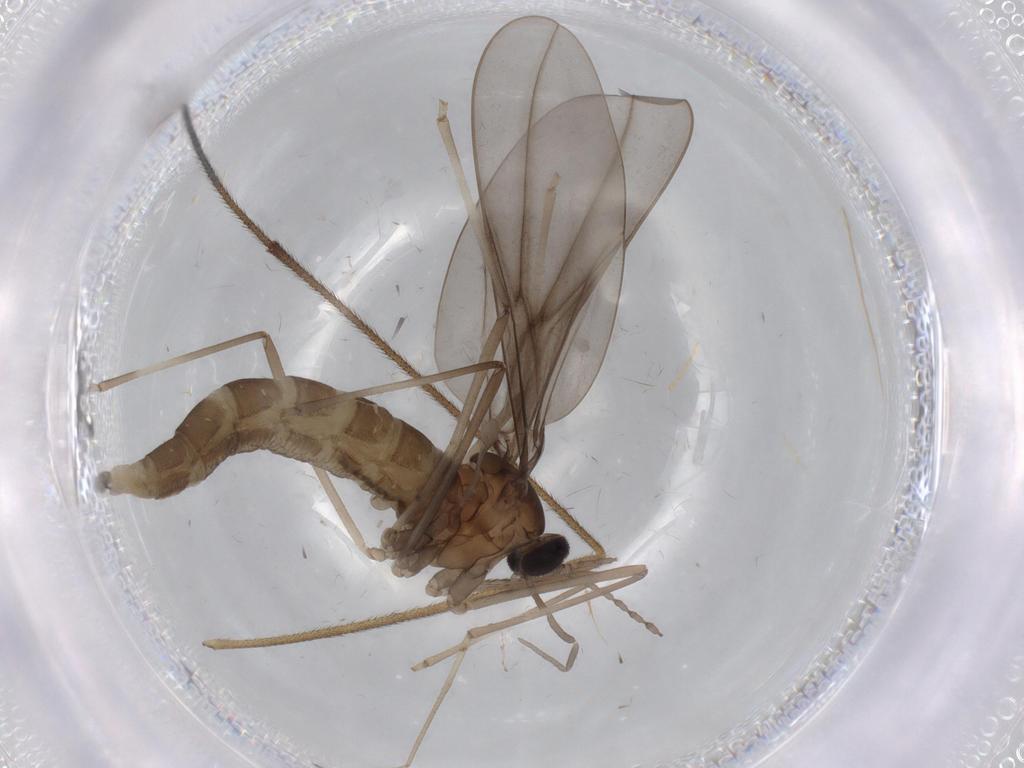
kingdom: Animalia
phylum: Arthropoda
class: Insecta
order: Diptera
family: Cecidomyiidae
